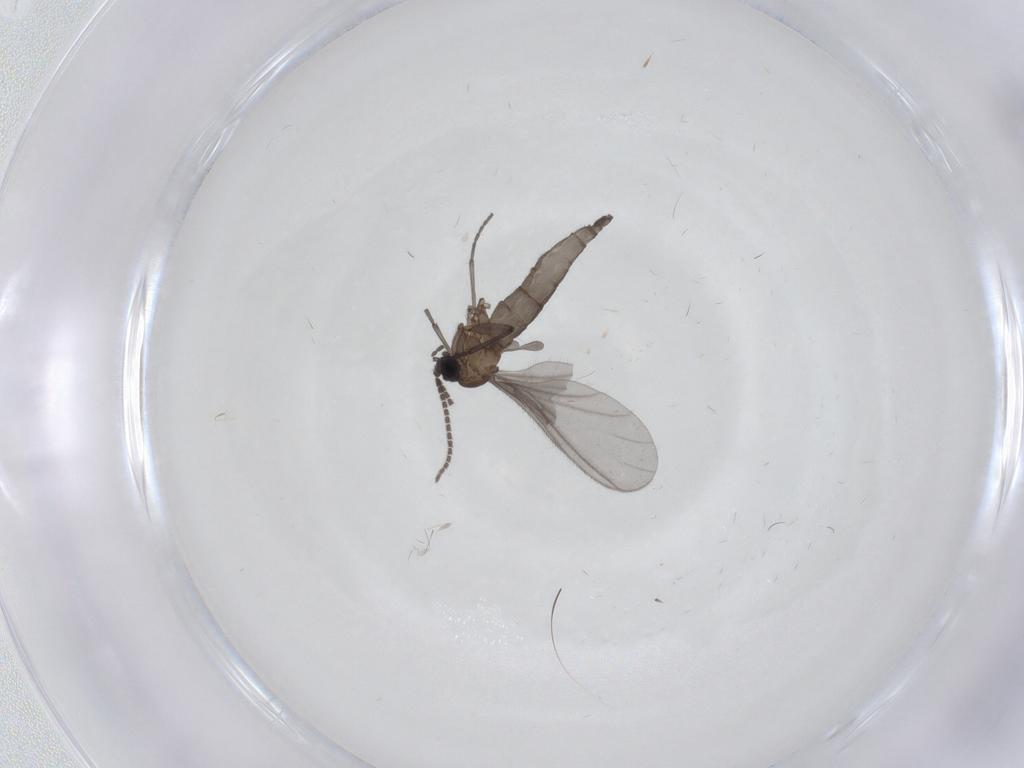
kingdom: Animalia
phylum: Arthropoda
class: Insecta
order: Diptera
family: Sciaridae
